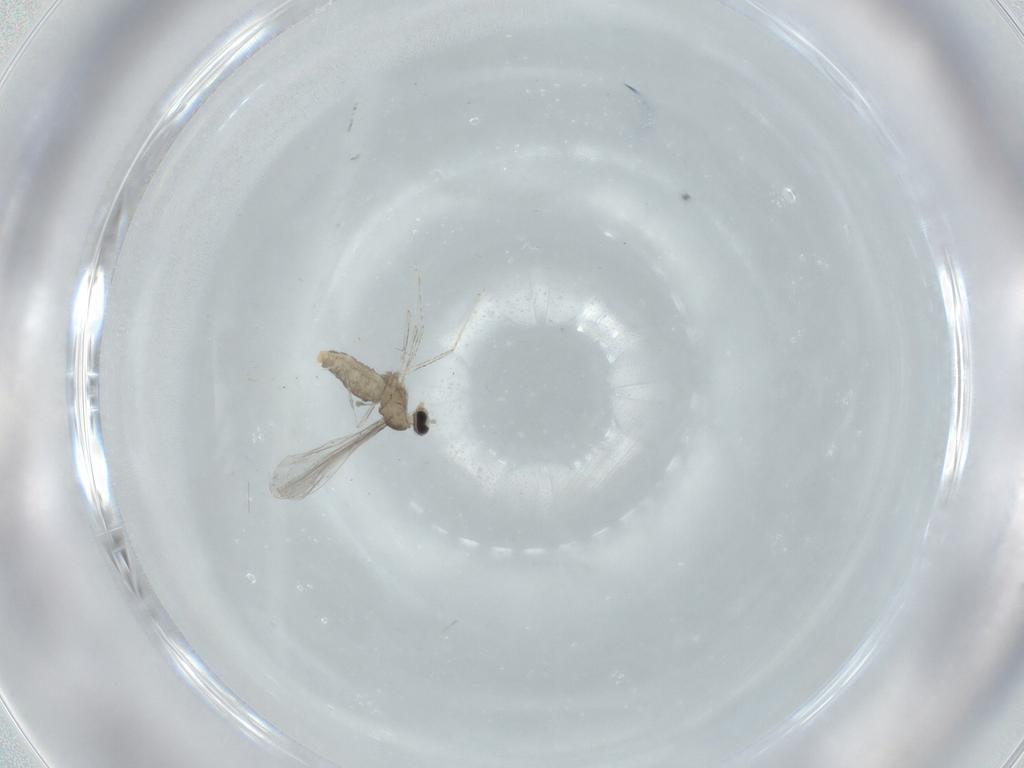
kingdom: Animalia
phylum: Arthropoda
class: Insecta
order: Diptera
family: Cecidomyiidae
